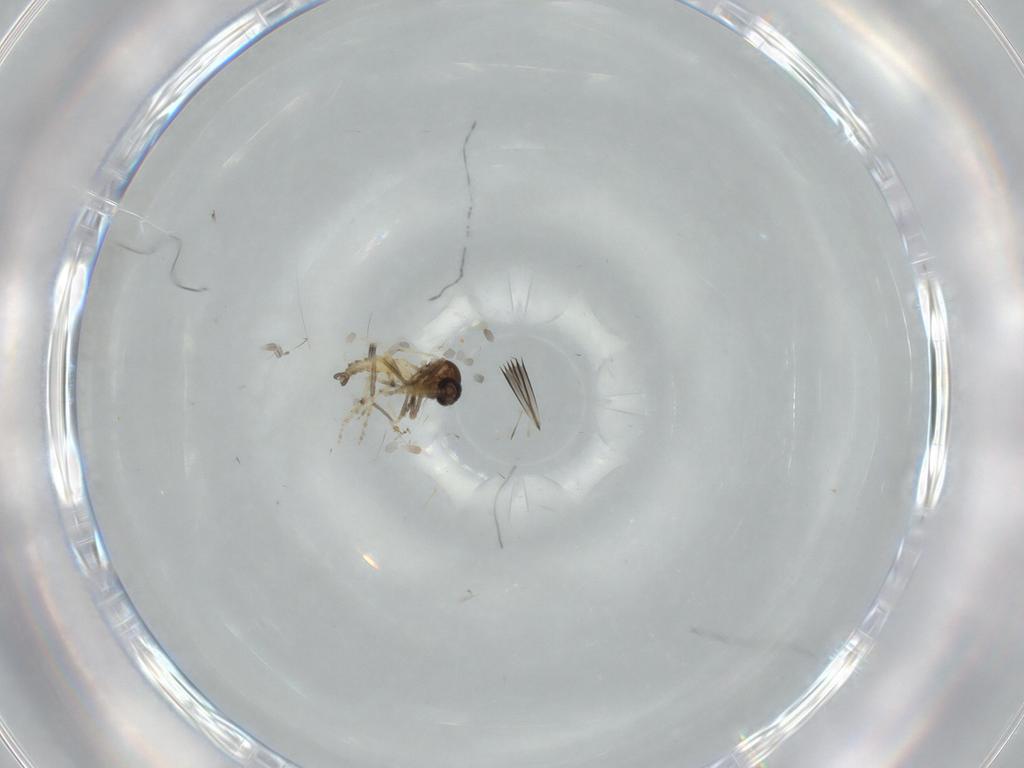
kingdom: Animalia
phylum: Arthropoda
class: Insecta
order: Diptera
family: Ceratopogonidae
